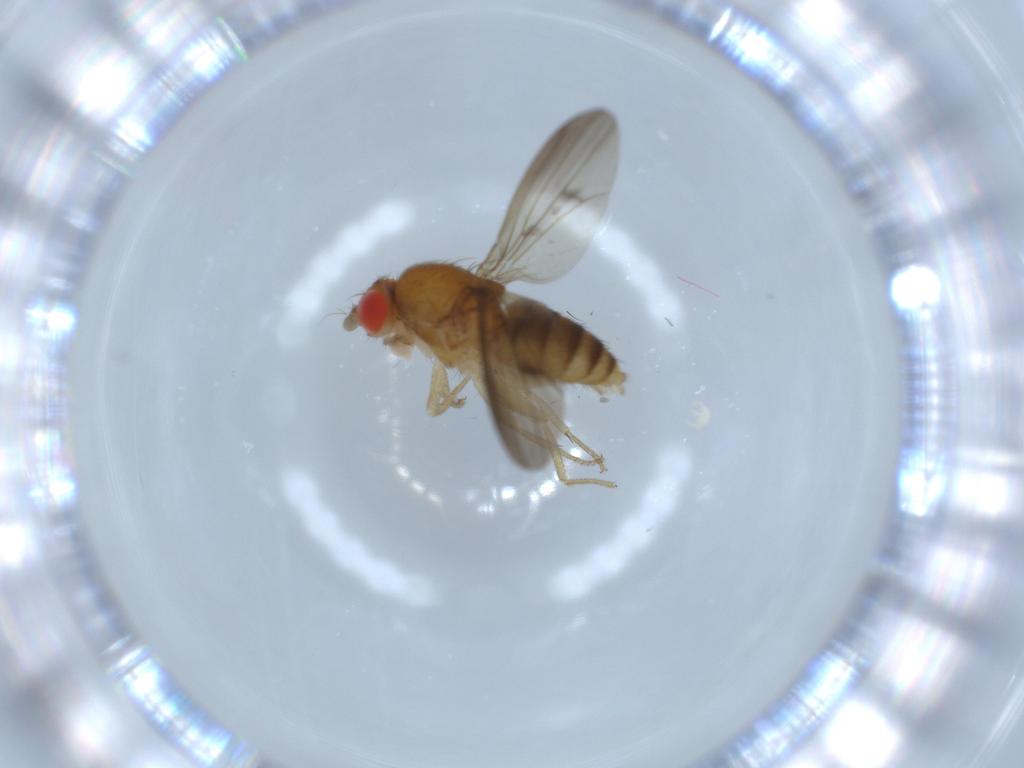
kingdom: Animalia
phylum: Arthropoda
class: Insecta
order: Diptera
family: Drosophilidae
